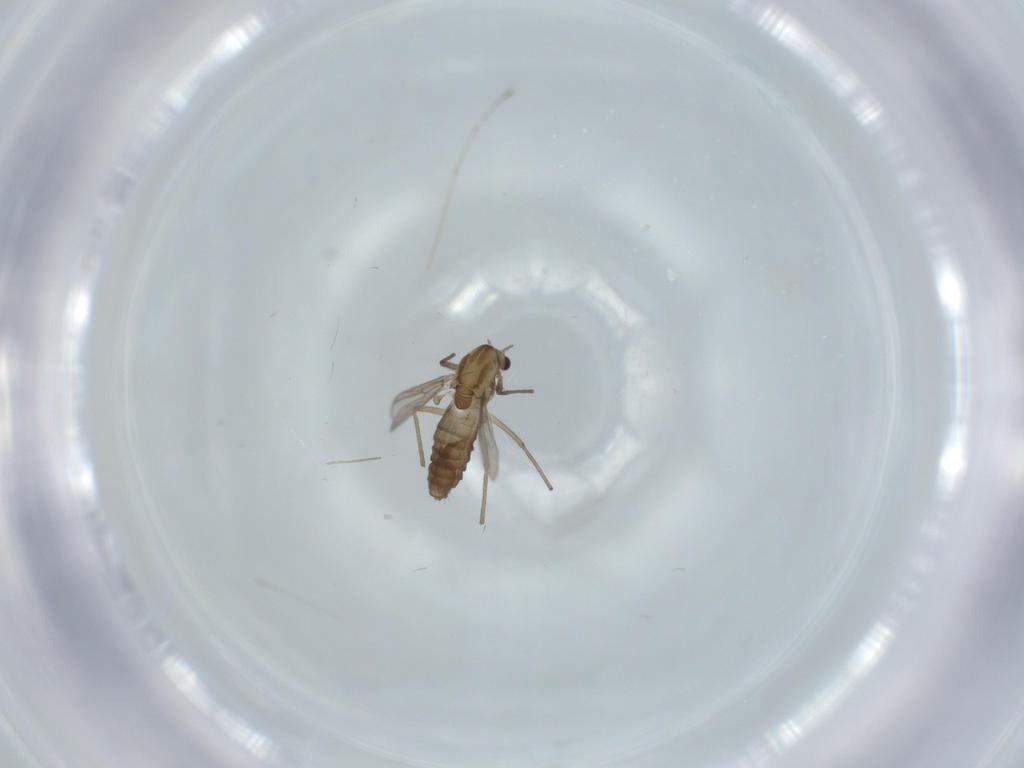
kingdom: Animalia
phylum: Arthropoda
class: Insecta
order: Diptera
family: Chironomidae
